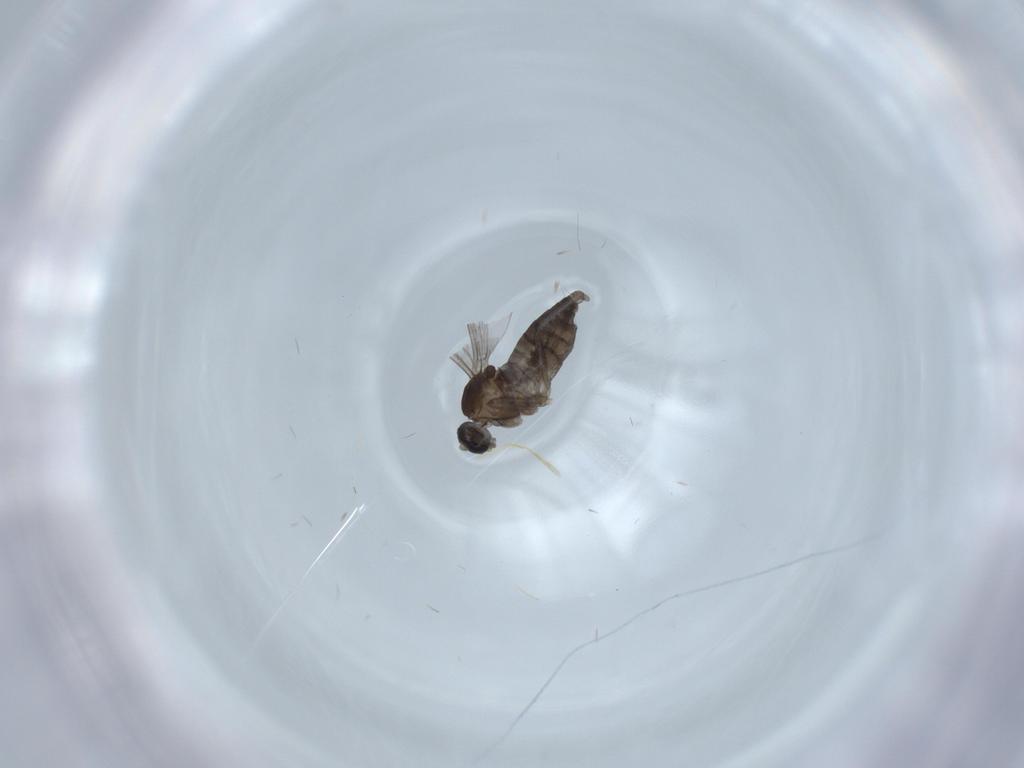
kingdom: Animalia
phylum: Arthropoda
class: Insecta
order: Diptera
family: Cecidomyiidae
